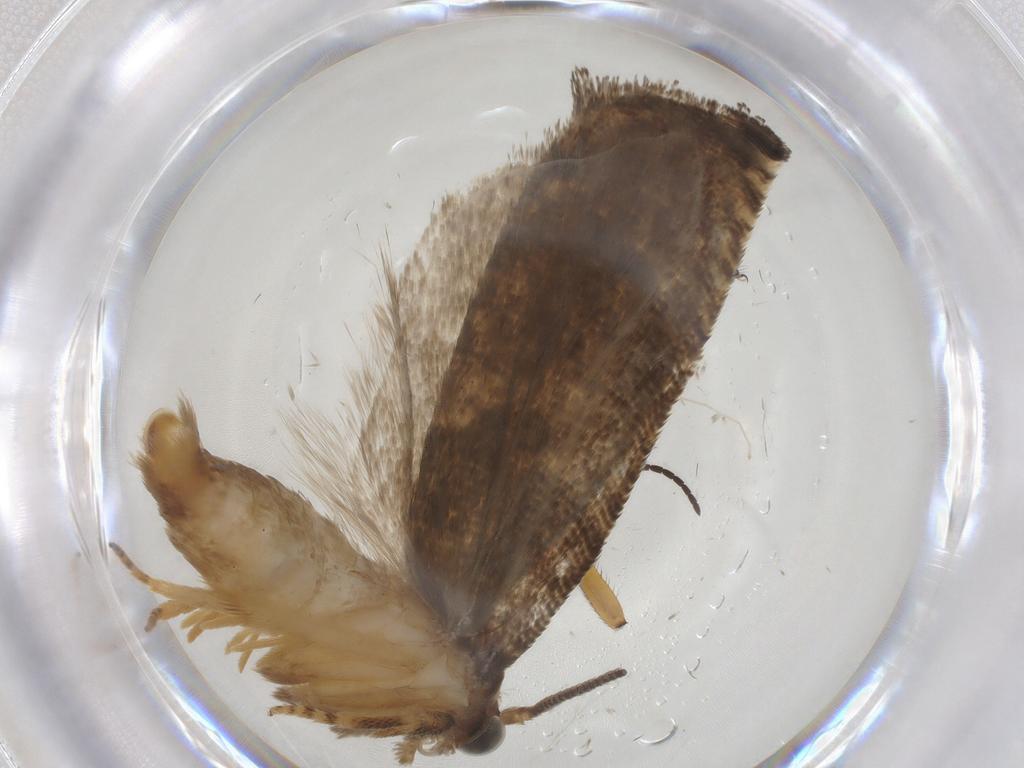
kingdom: Animalia
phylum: Arthropoda
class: Insecta
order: Lepidoptera
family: Tortricidae
